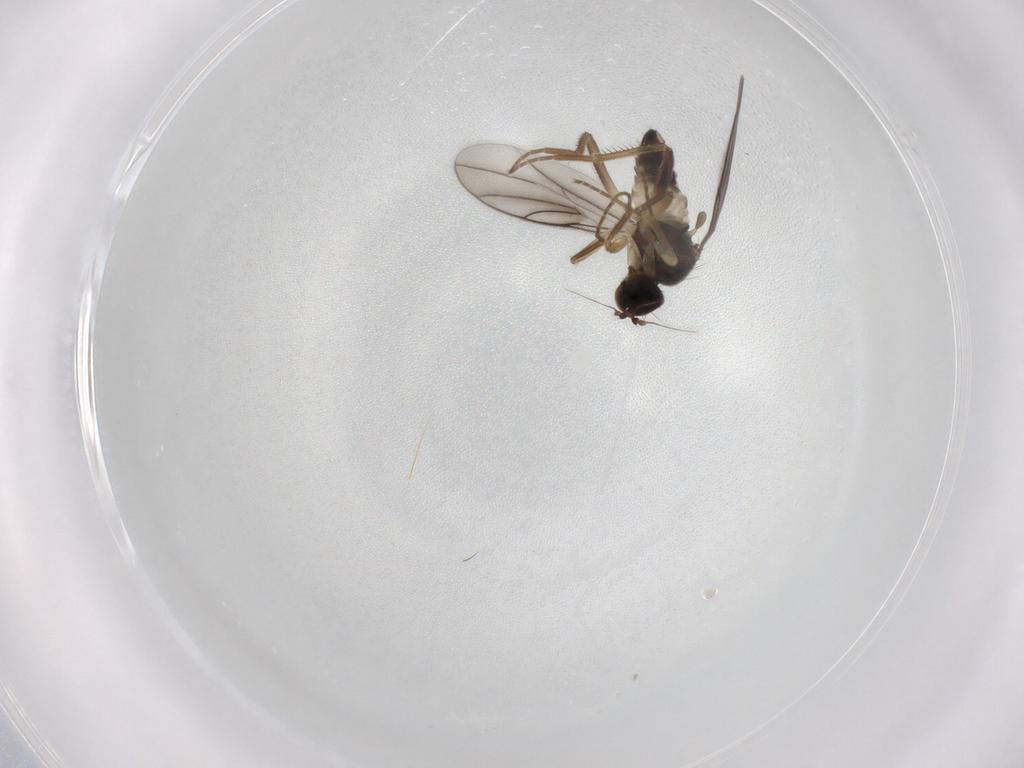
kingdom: Animalia
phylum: Arthropoda
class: Insecta
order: Diptera
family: Hybotidae
